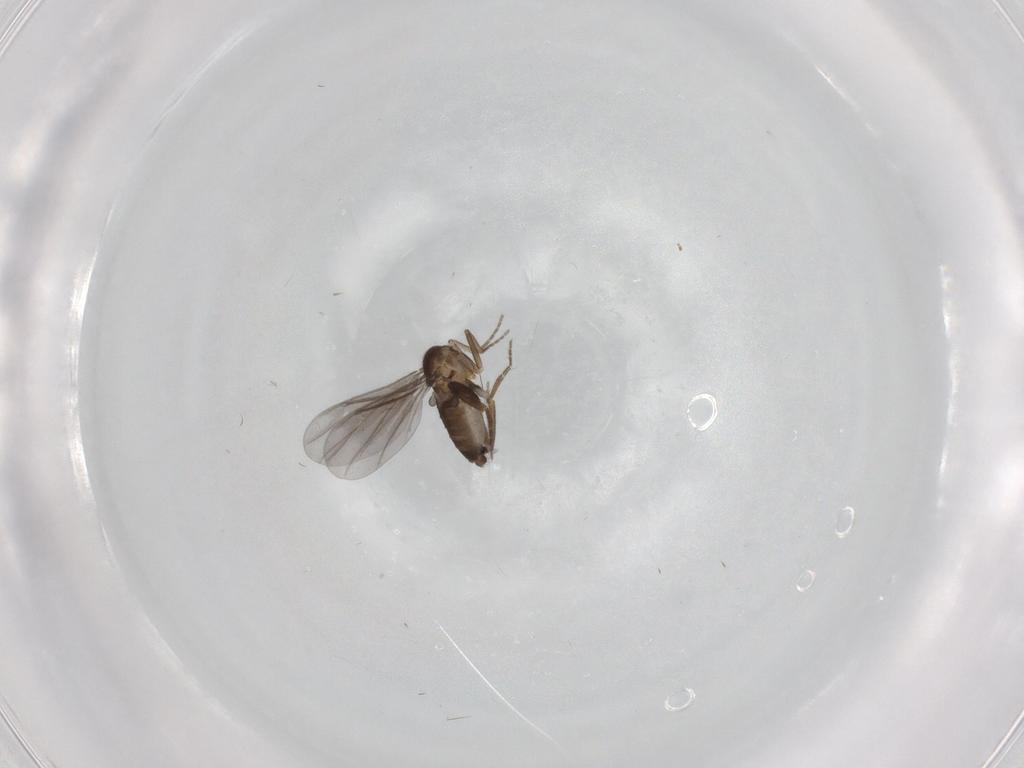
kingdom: Animalia
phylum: Arthropoda
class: Insecta
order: Diptera
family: Phoridae
